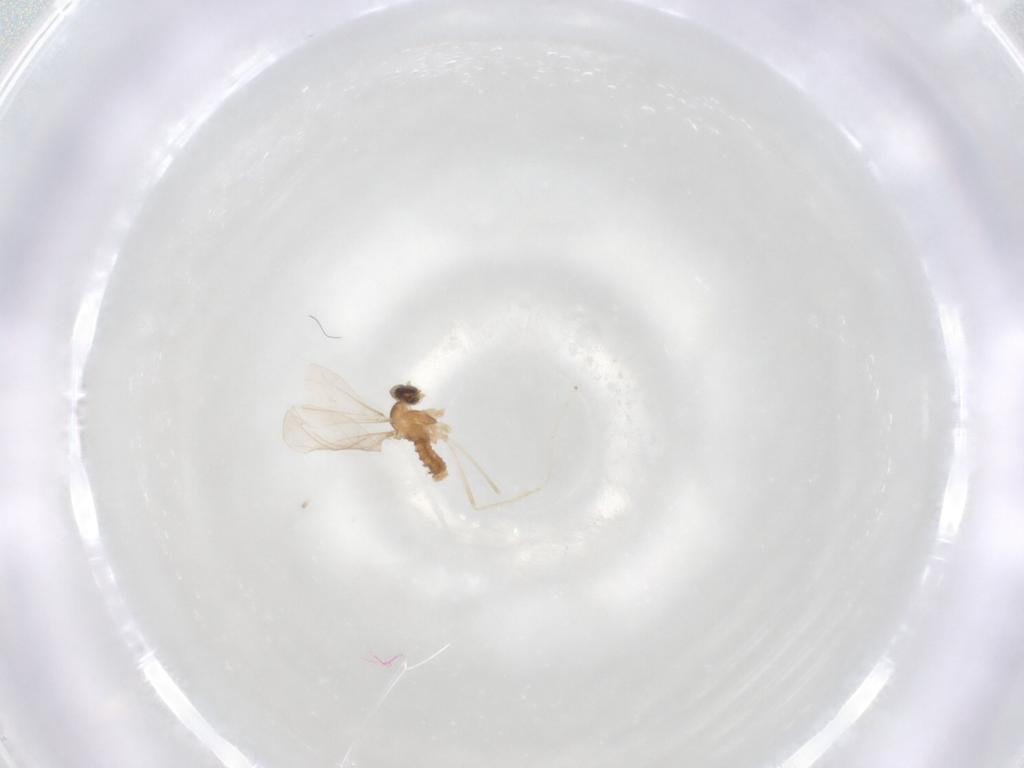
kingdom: Animalia
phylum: Arthropoda
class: Insecta
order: Diptera
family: Cecidomyiidae
